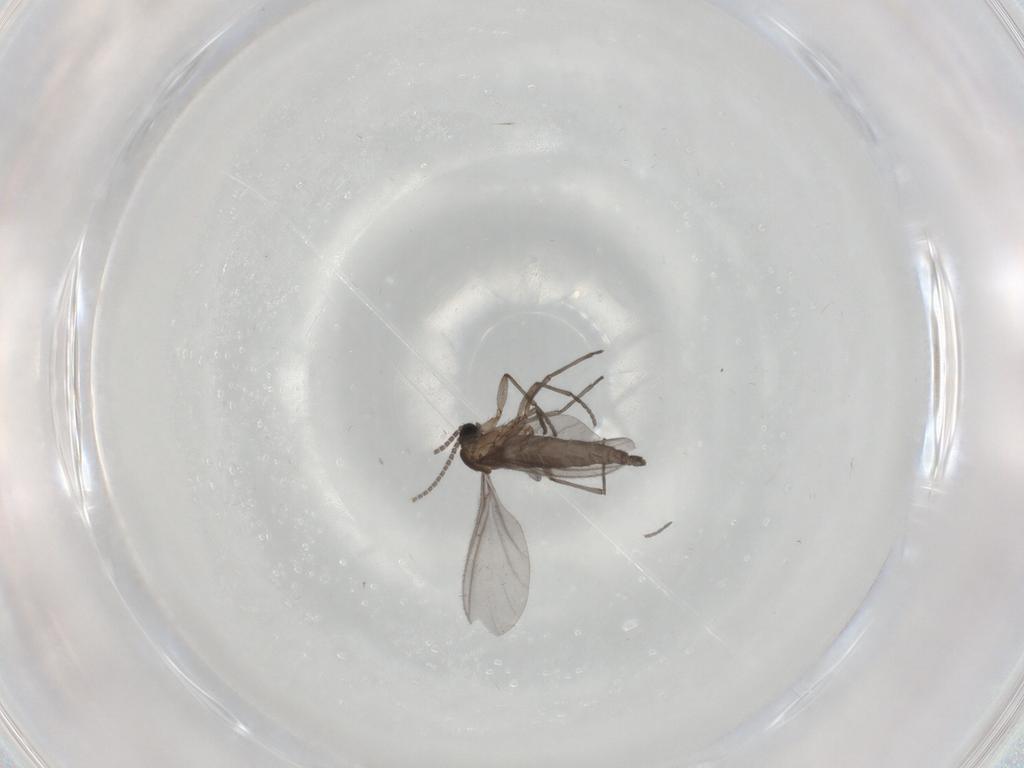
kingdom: Animalia
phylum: Arthropoda
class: Insecta
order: Diptera
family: Sciaridae
